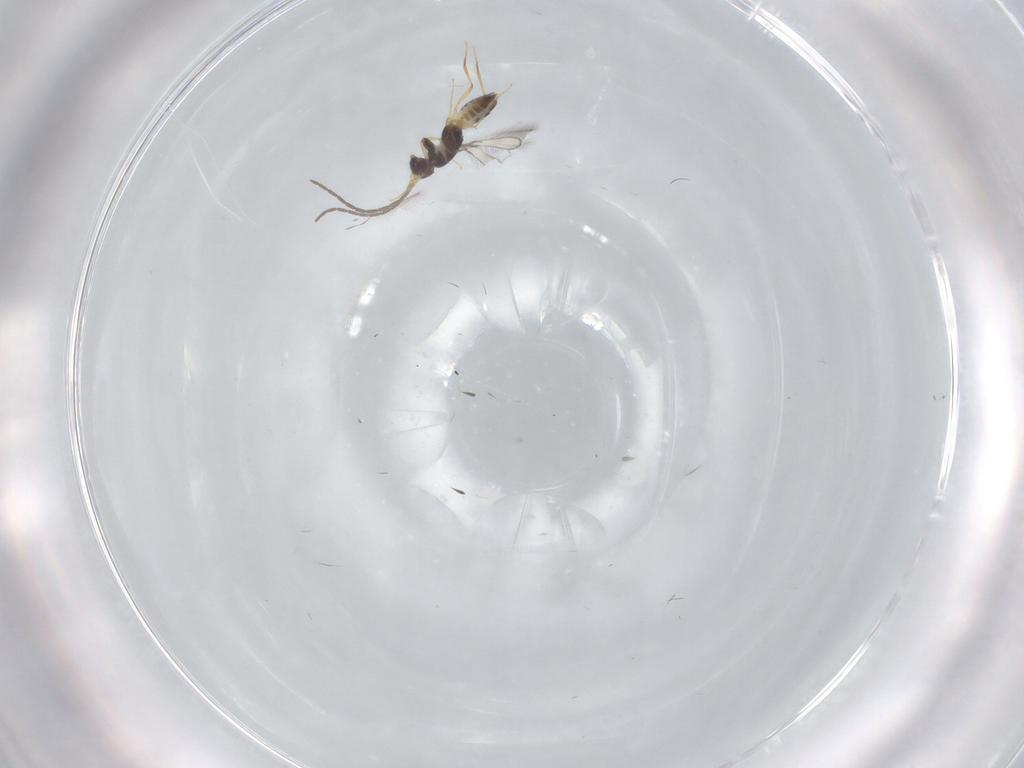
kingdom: Animalia
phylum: Arthropoda
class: Insecta
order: Hymenoptera
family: Mymaridae
